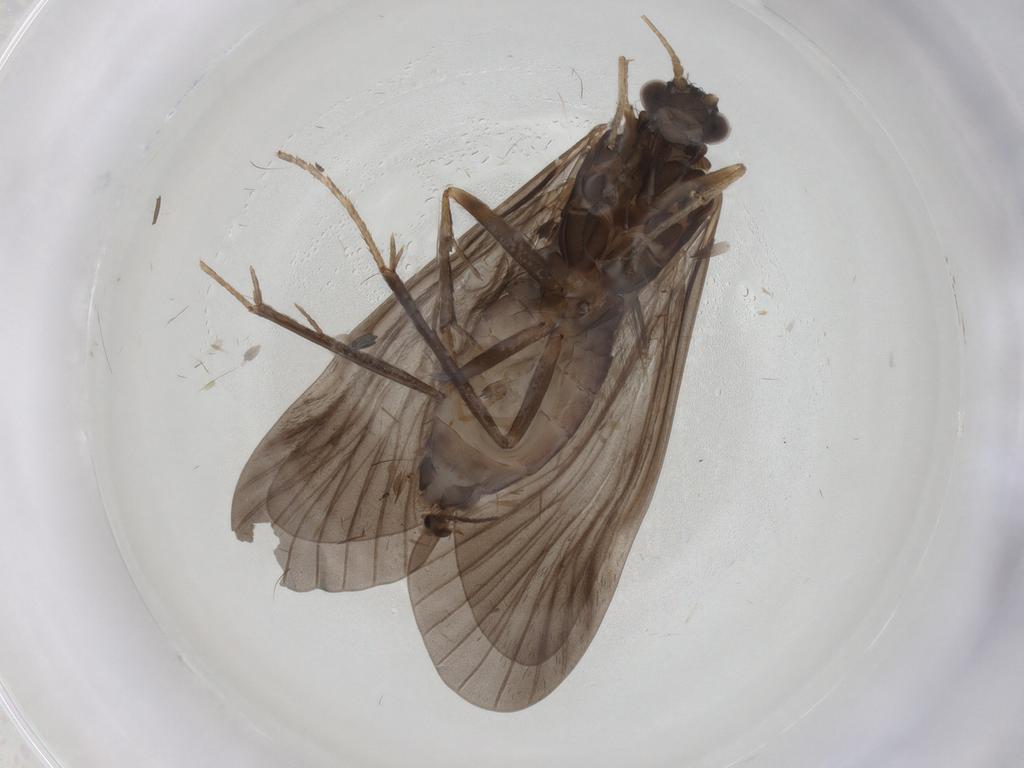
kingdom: Animalia
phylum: Arthropoda
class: Insecta
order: Trichoptera
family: Hydropsychidae
